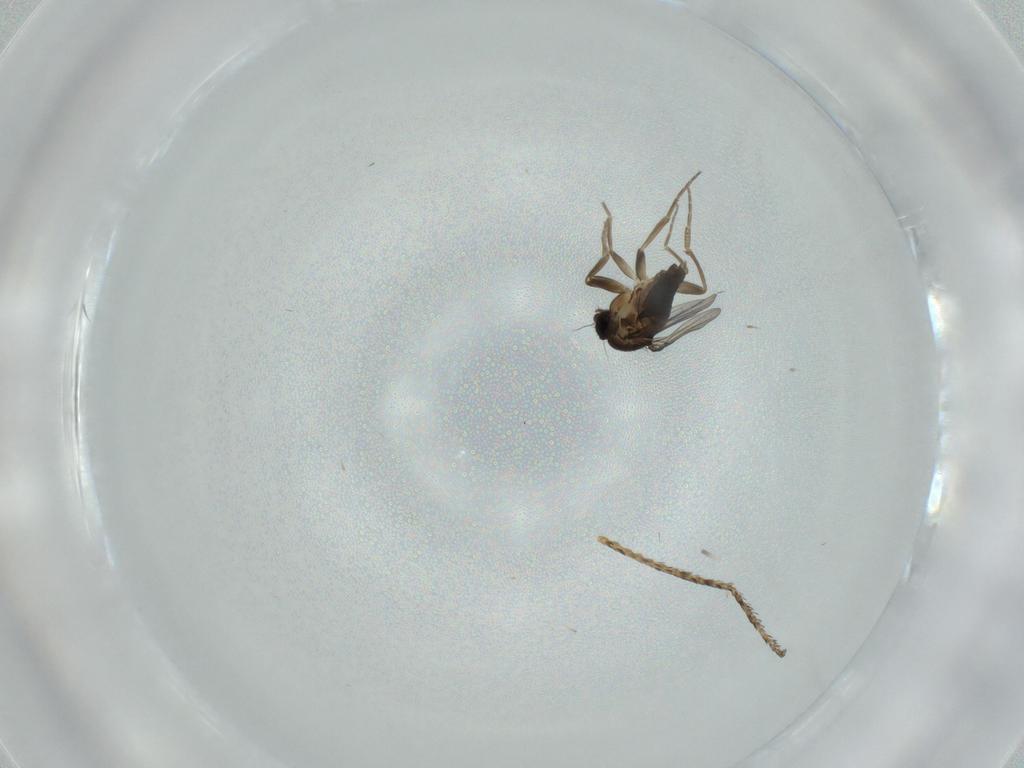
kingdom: Animalia
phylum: Arthropoda
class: Insecta
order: Diptera
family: Phoridae
